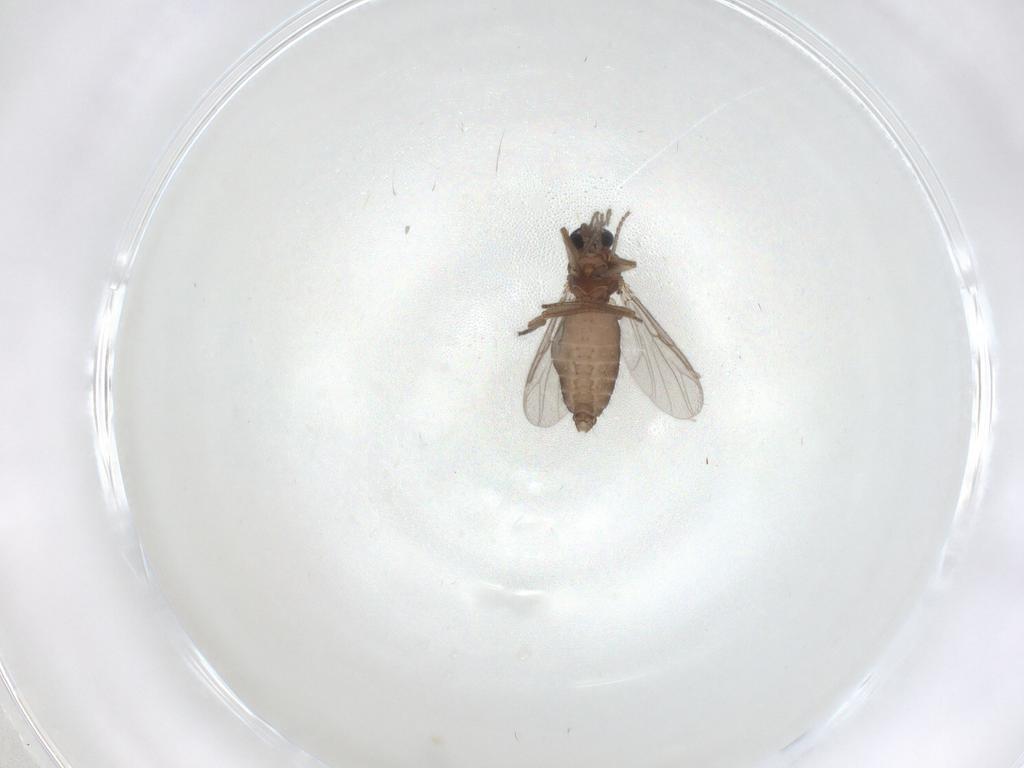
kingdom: Animalia
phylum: Arthropoda
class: Insecta
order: Diptera
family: Ceratopogonidae
